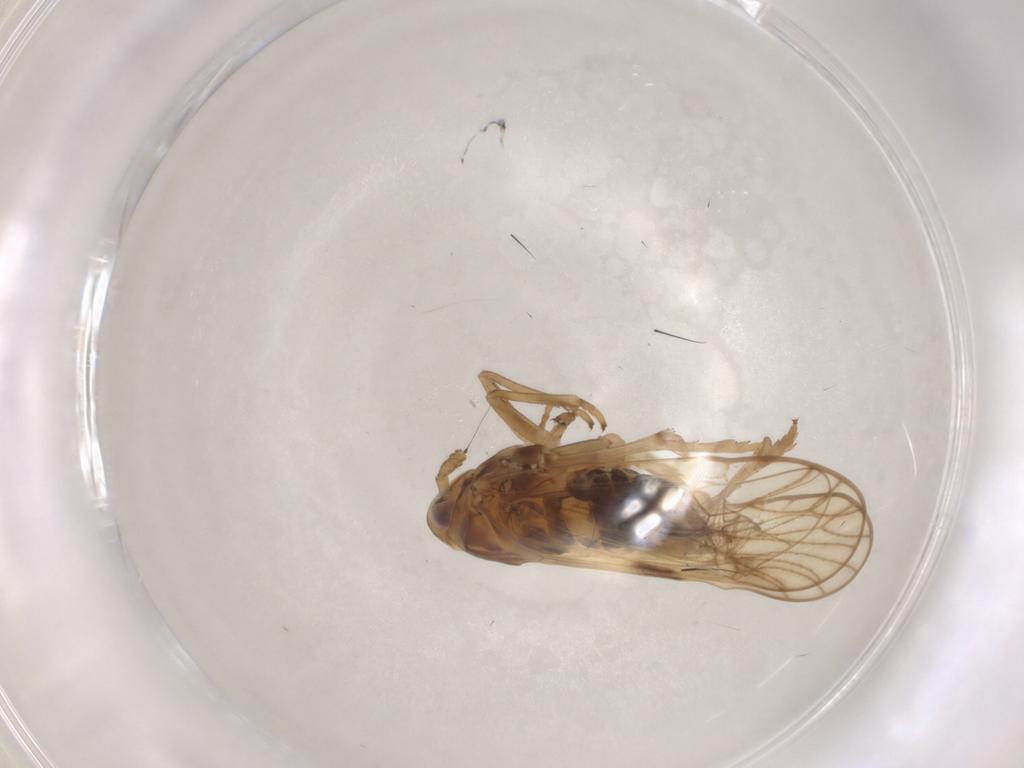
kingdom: Animalia
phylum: Arthropoda
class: Insecta
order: Hemiptera
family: Delphacidae
